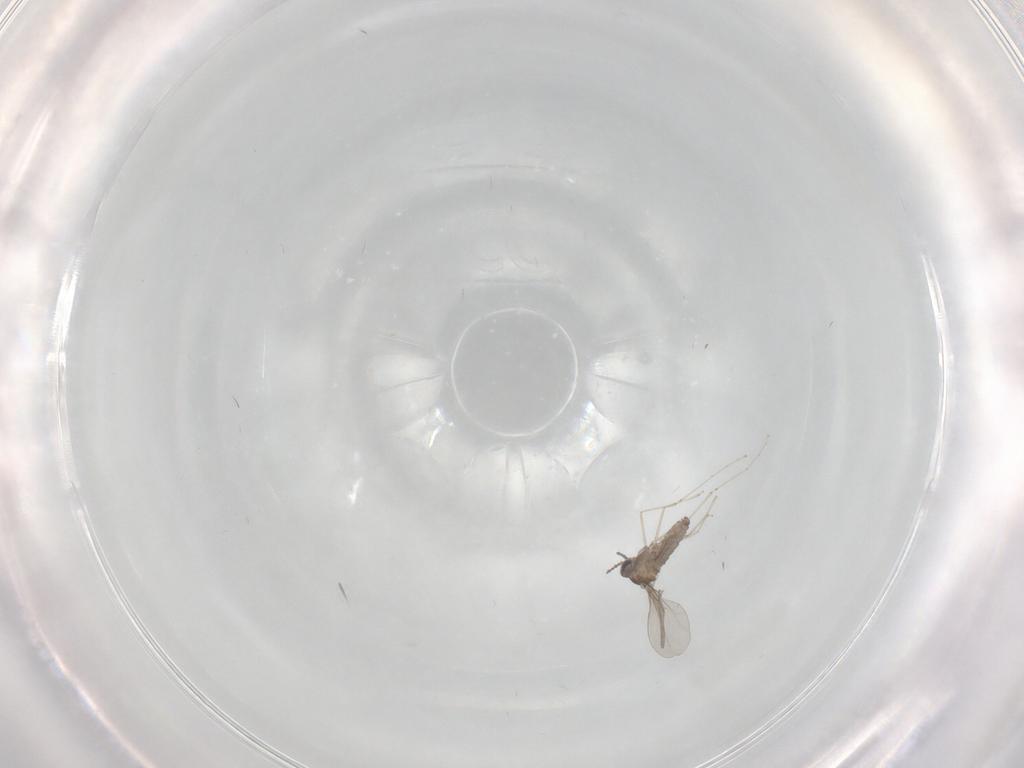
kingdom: Animalia
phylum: Arthropoda
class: Insecta
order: Diptera
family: Cecidomyiidae
